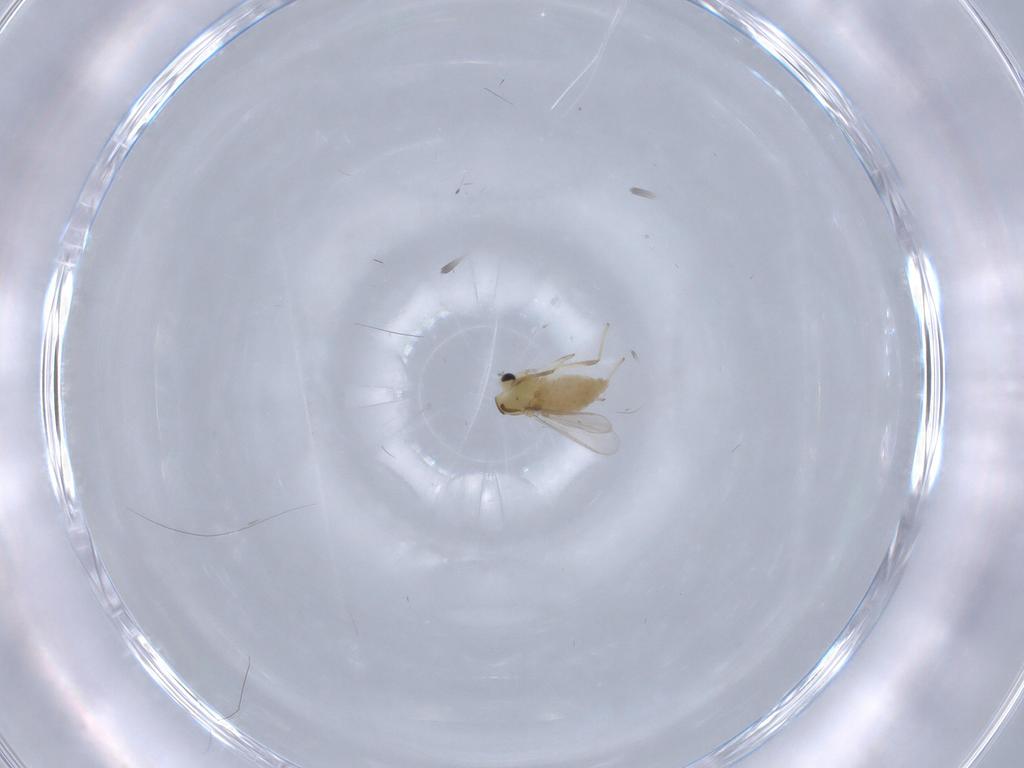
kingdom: Animalia
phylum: Arthropoda
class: Insecta
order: Diptera
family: Chironomidae
